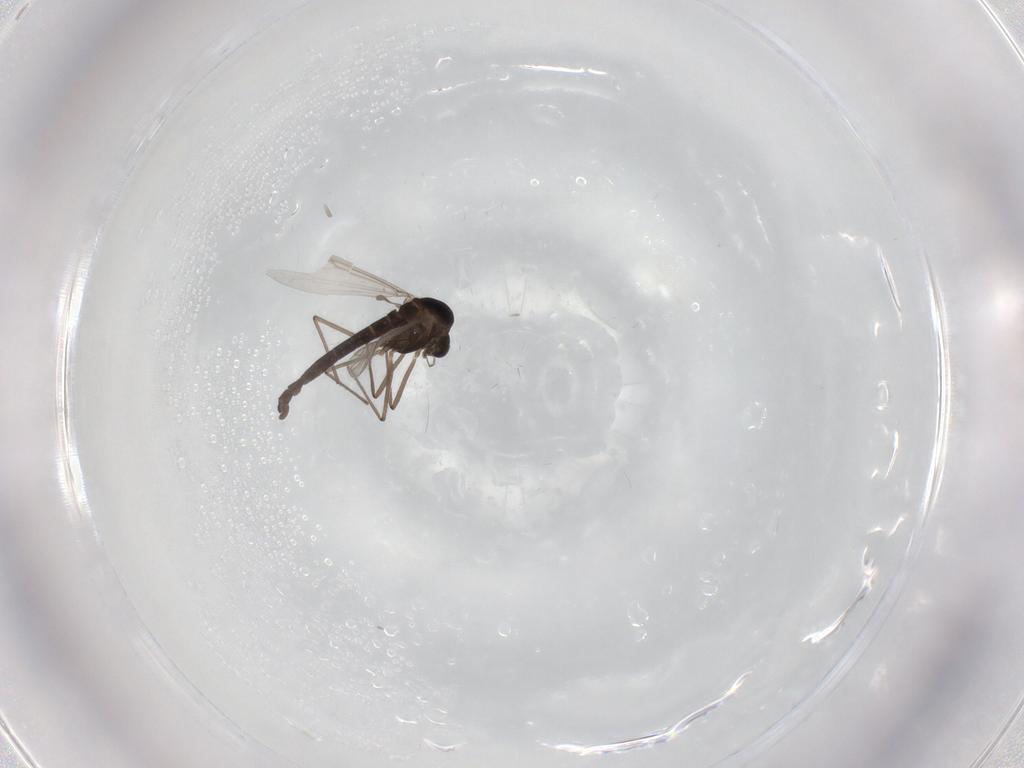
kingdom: Animalia
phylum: Arthropoda
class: Insecta
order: Diptera
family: Chironomidae
